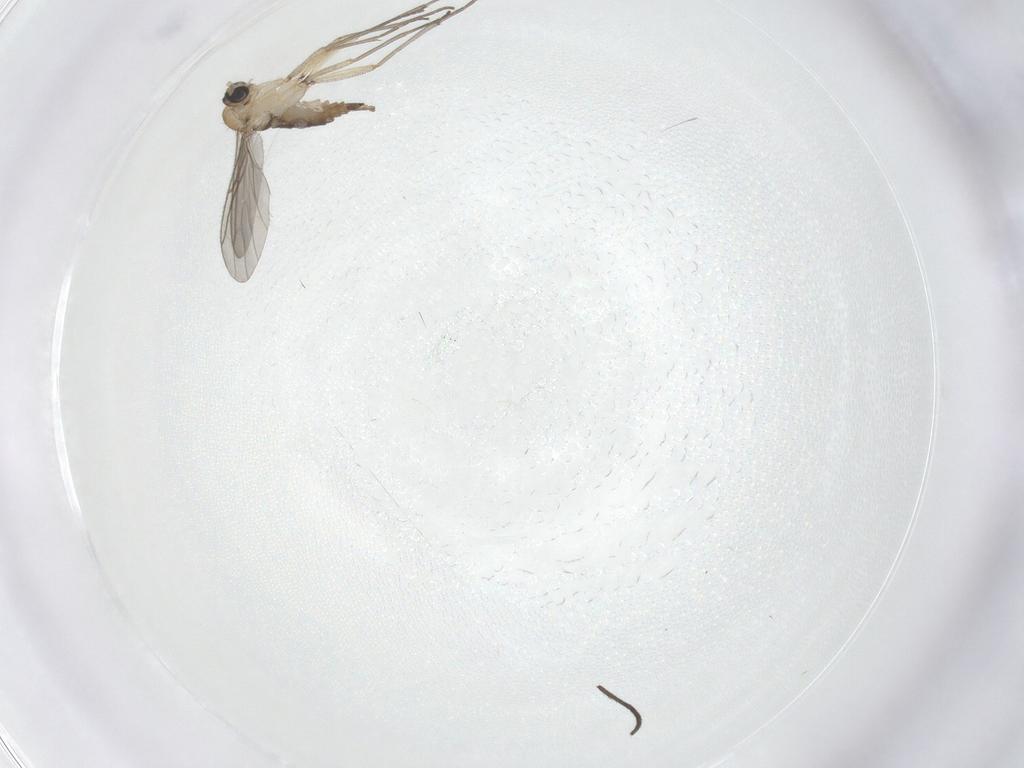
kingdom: Animalia
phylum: Arthropoda
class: Insecta
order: Diptera
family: Sciaridae
